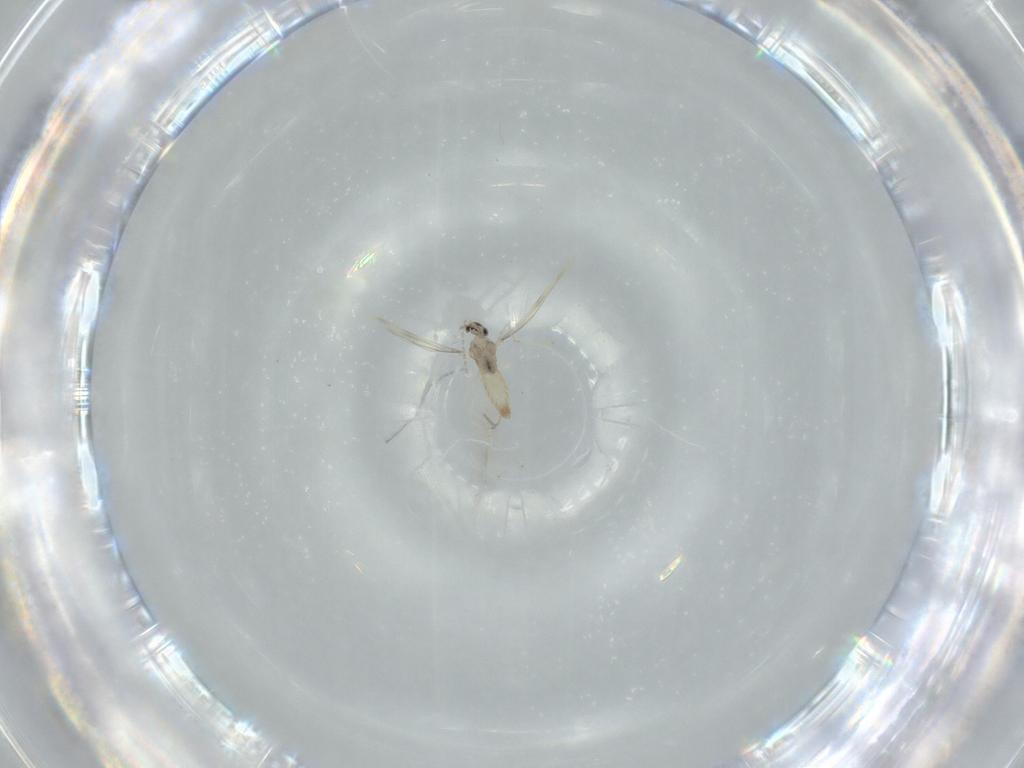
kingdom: Animalia
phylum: Arthropoda
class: Insecta
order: Diptera
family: Cecidomyiidae
